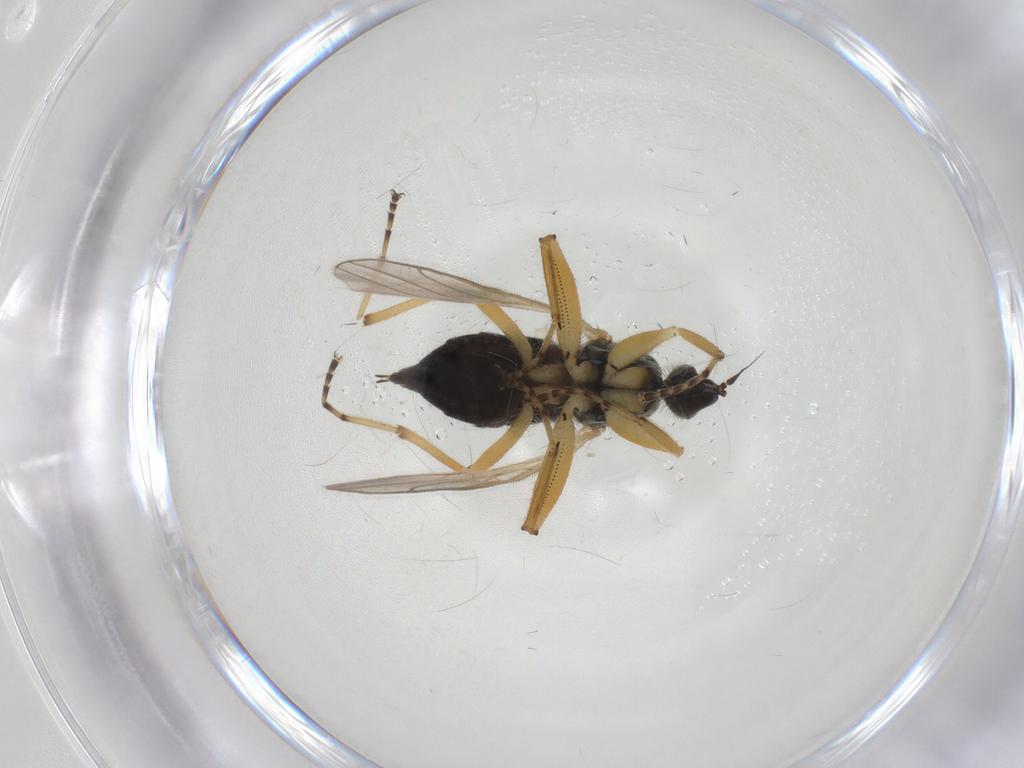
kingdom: Animalia
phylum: Arthropoda
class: Insecta
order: Diptera
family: Hybotidae
